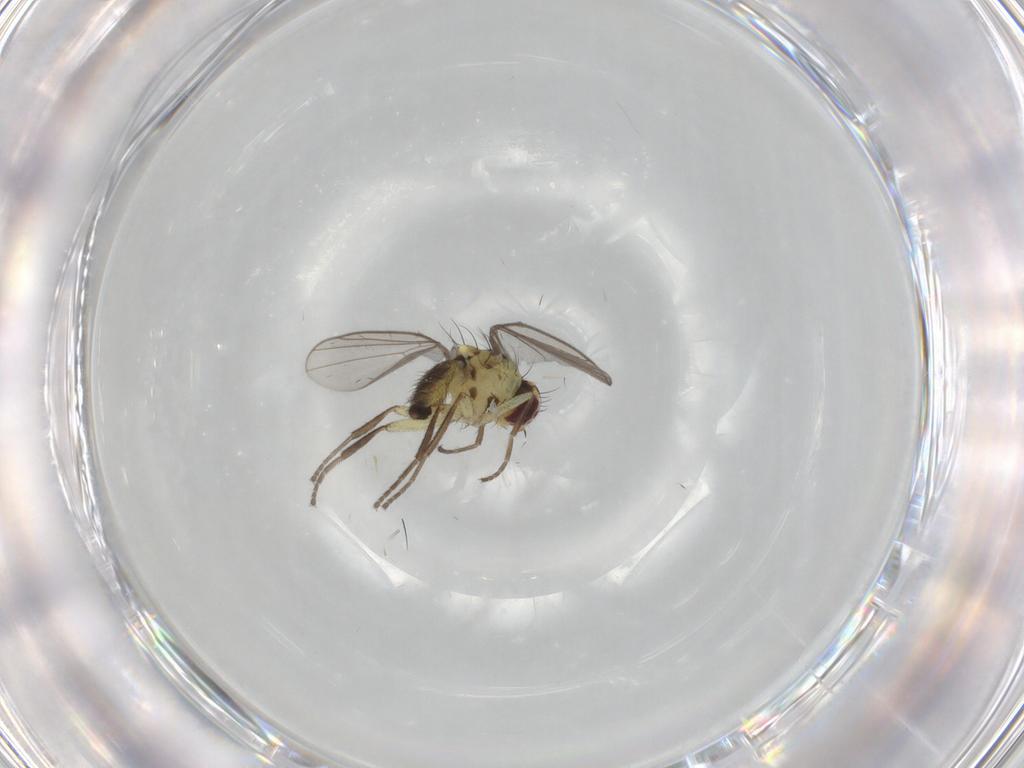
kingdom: Animalia
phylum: Arthropoda
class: Insecta
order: Diptera
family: Agromyzidae
